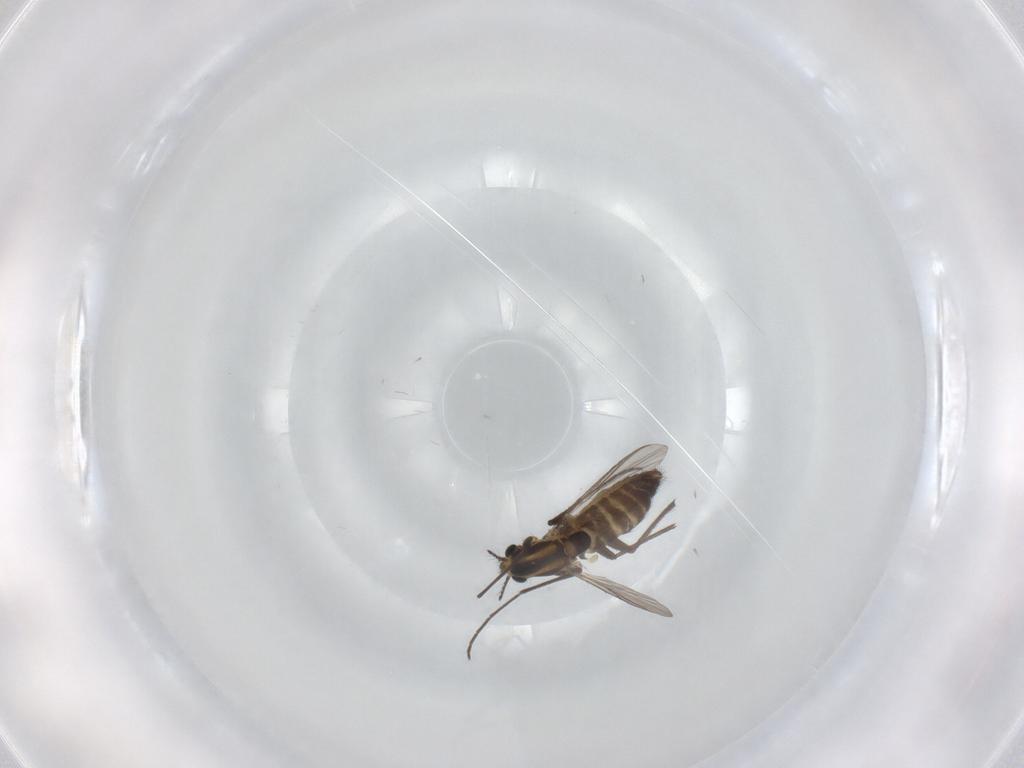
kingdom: Animalia
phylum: Arthropoda
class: Insecta
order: Diptera
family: Chironomidae
